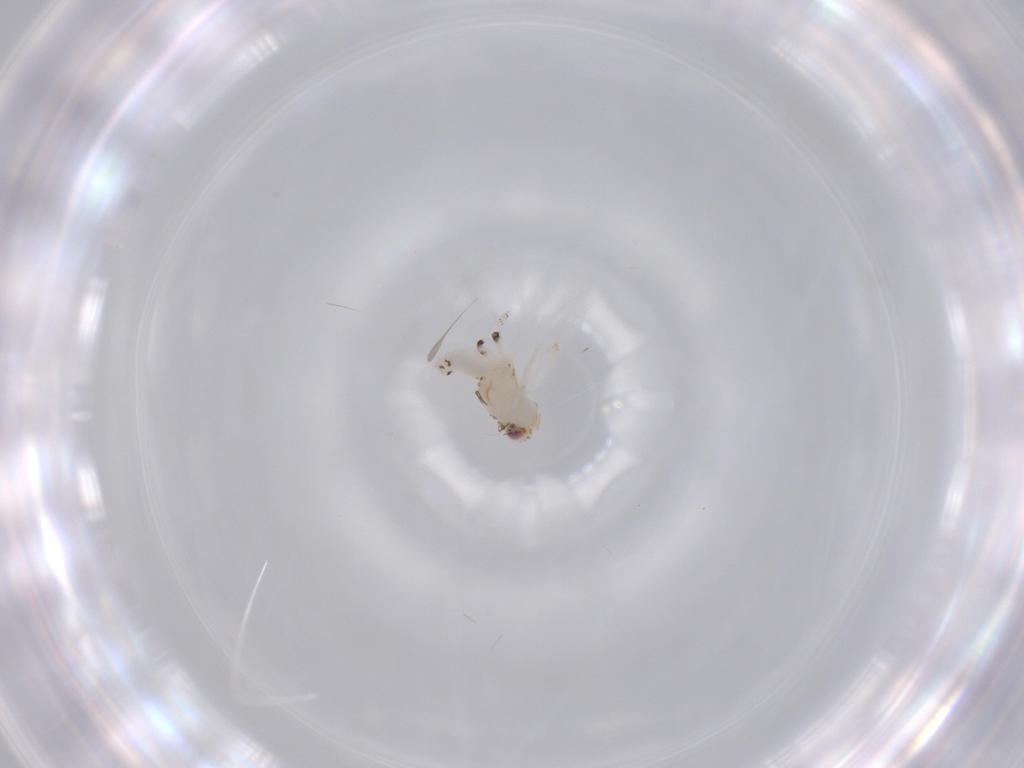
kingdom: Animalia
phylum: Arthropoda
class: Insecta
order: Hemiptera
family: Nogodinidae
